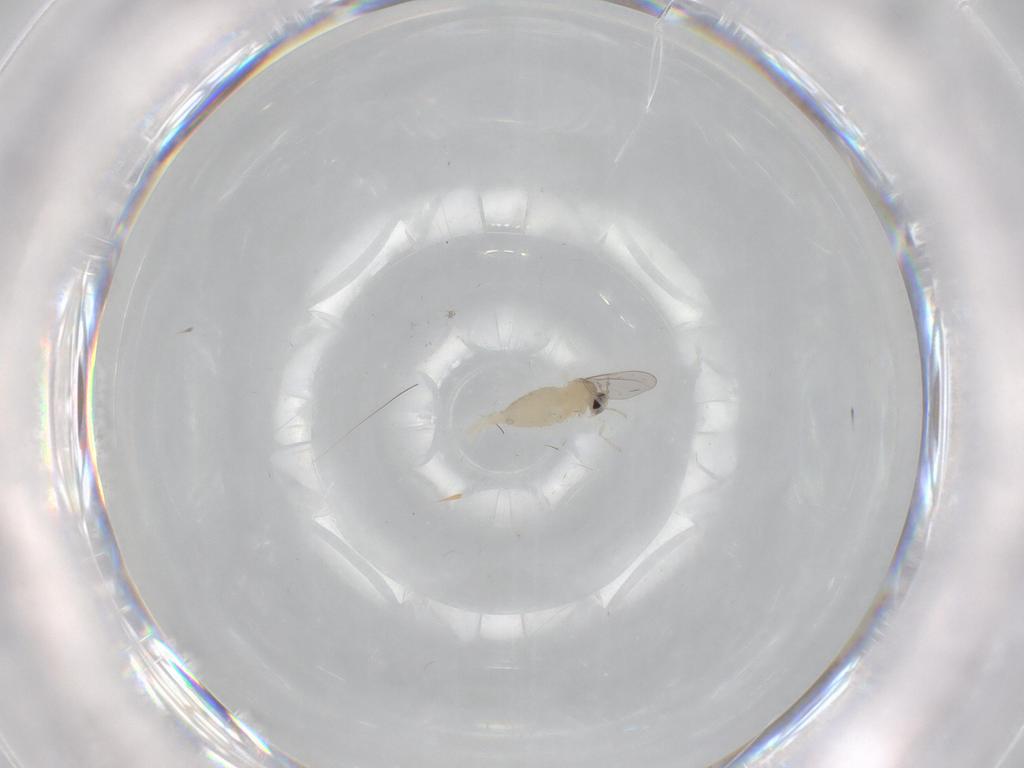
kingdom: Animalia
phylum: Arthropoda
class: Insecta
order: Diptera
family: Cecidomyiidae
